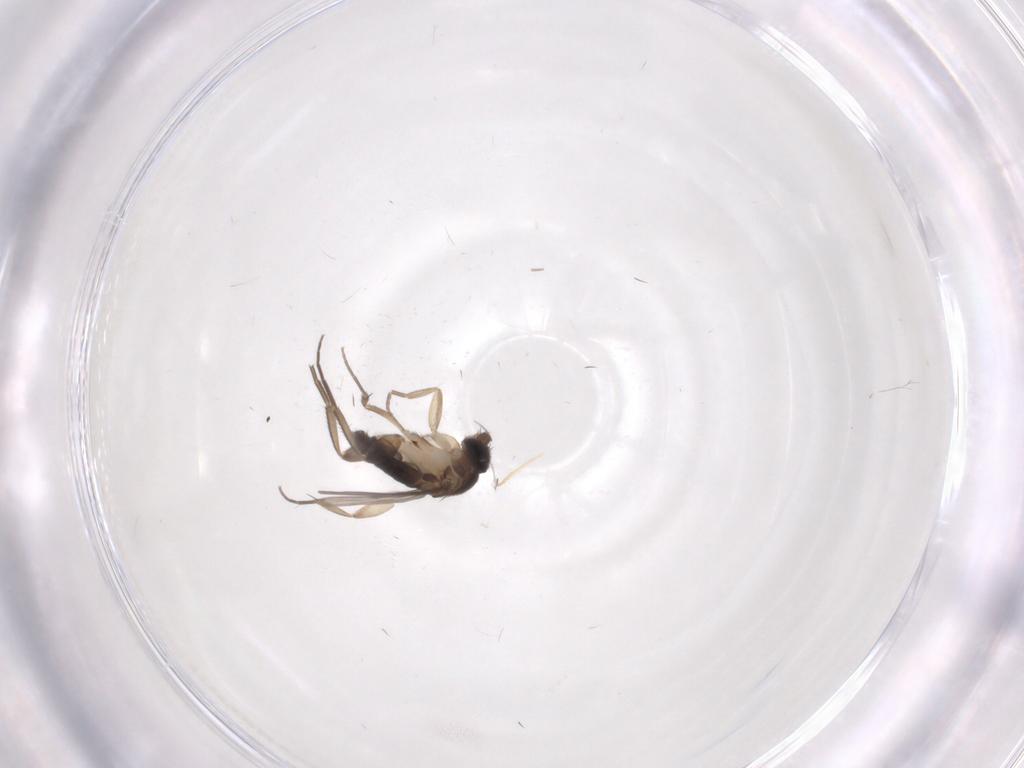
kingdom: Animalia
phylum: Arthropoda
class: Insecta
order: Diptera
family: Phoridae
